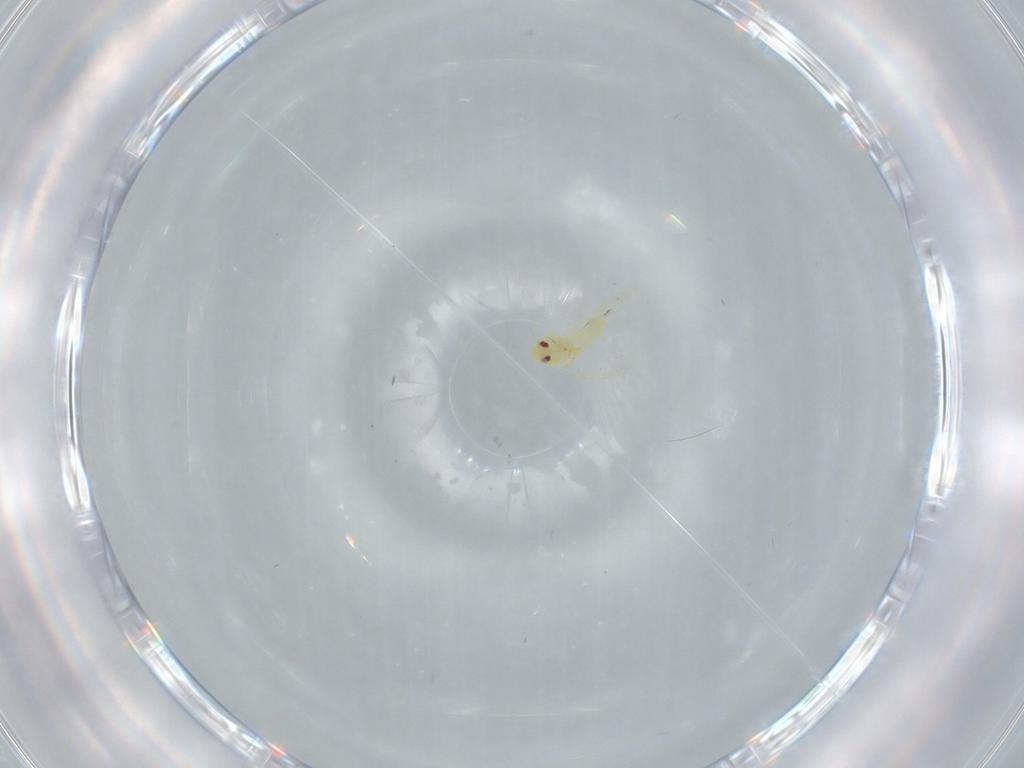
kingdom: Animalia
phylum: Arthropoda
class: Insecta
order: Hemiptera
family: Aleyrodidae
